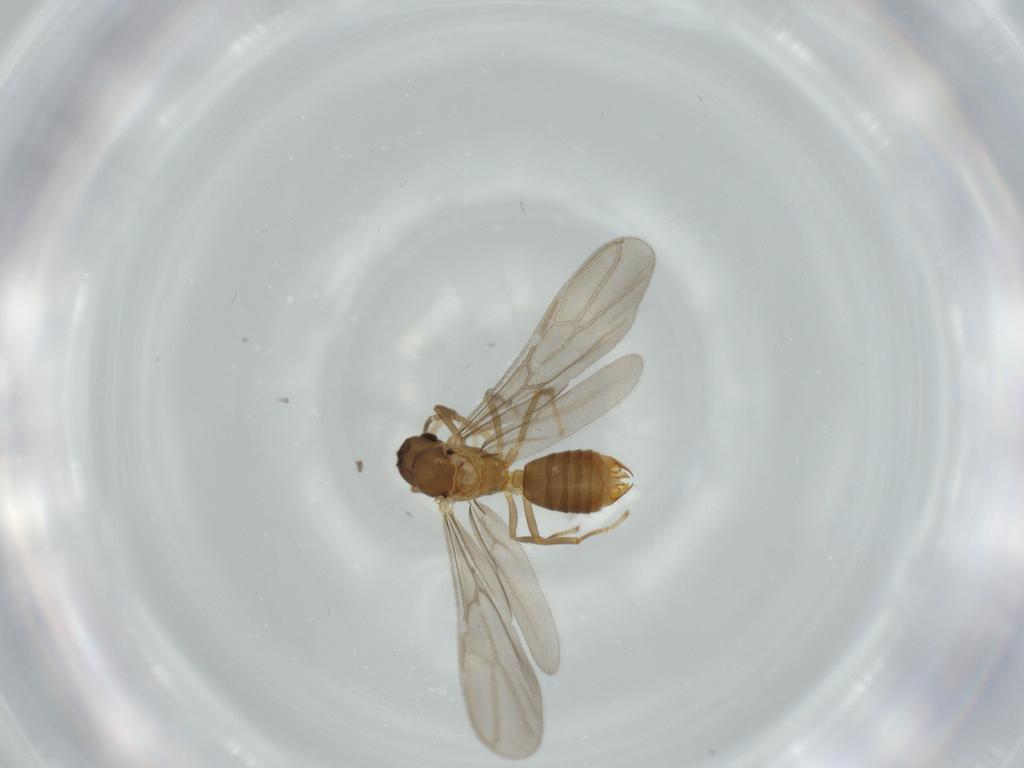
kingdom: Animalia
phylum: Arthropoda
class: Insecta
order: Hymenoptera
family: Formicidae
